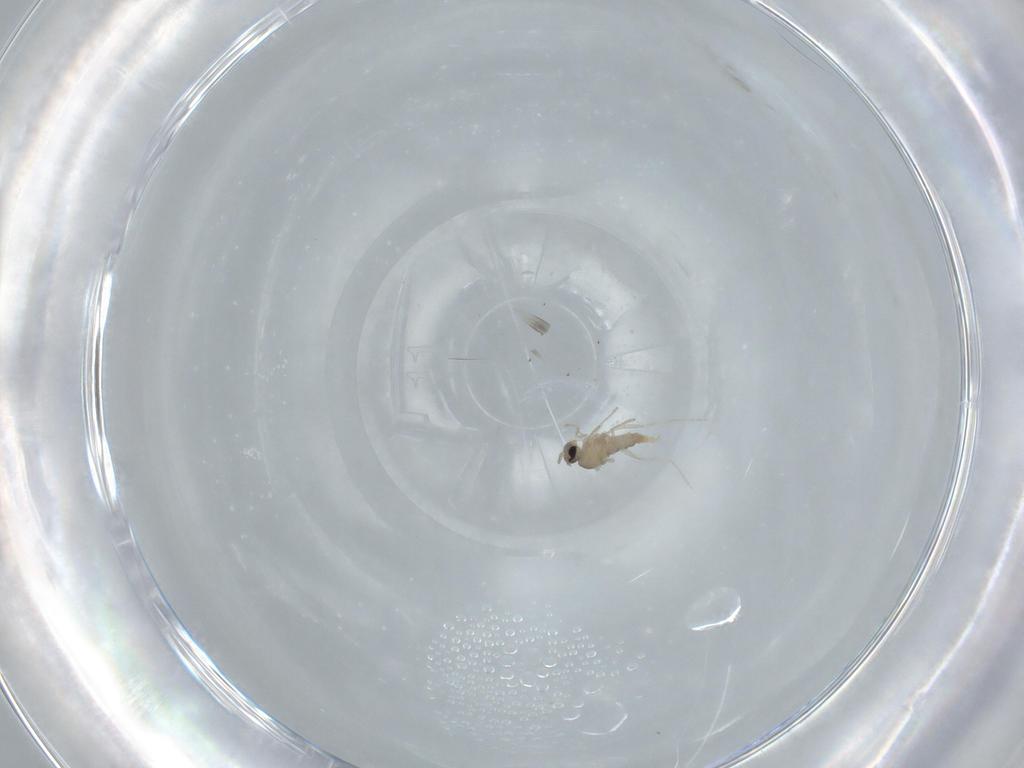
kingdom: Animalia
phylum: Arthropoda
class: Insecta
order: Diptera
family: Cecidomyiidae
